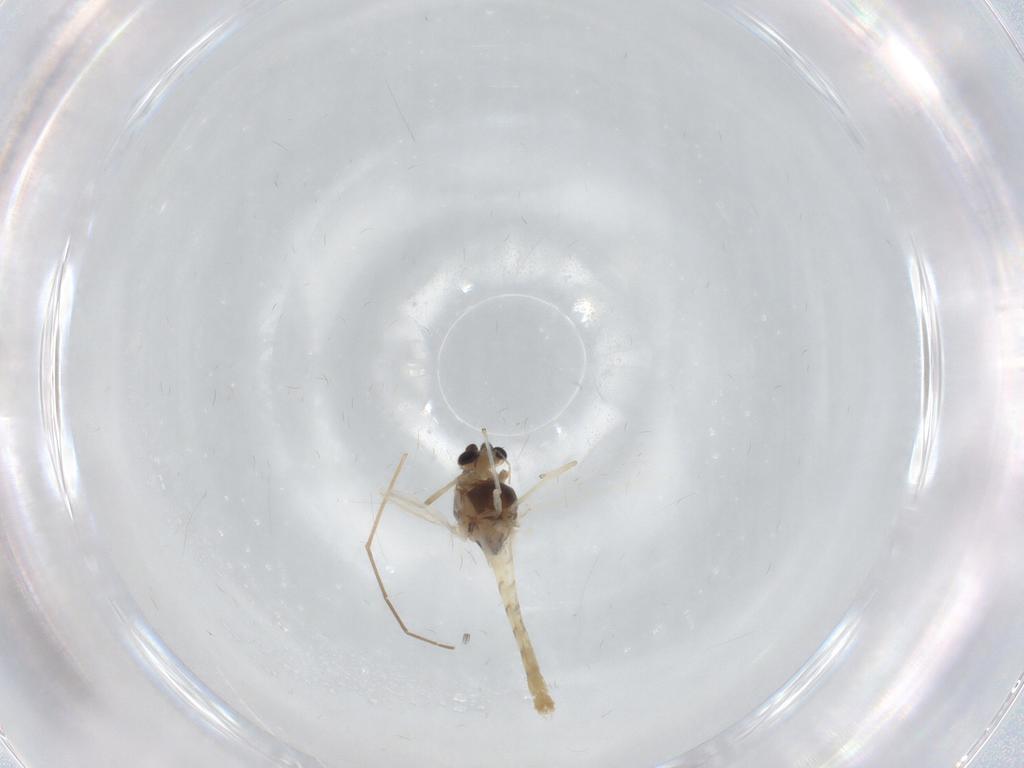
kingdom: Animalia
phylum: Arthropoda
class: Insecta
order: Diptera
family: Chironomidae
